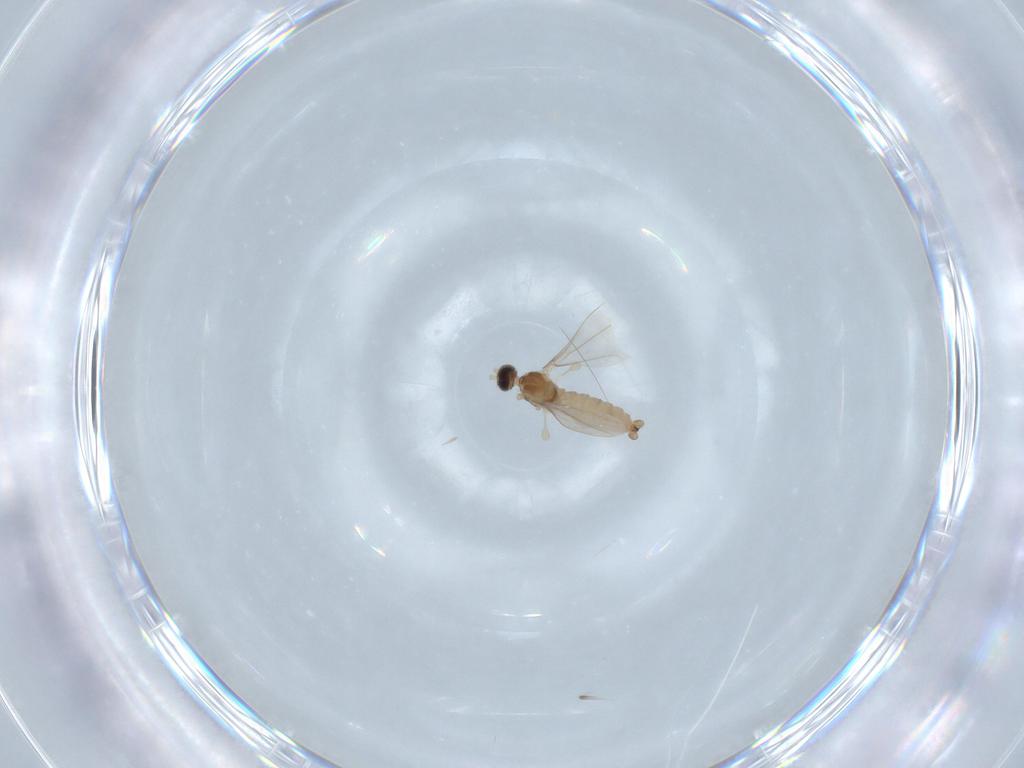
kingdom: Animalia
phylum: Arthropoda
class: Insecta
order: Diptera
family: Cecidomyiidae
